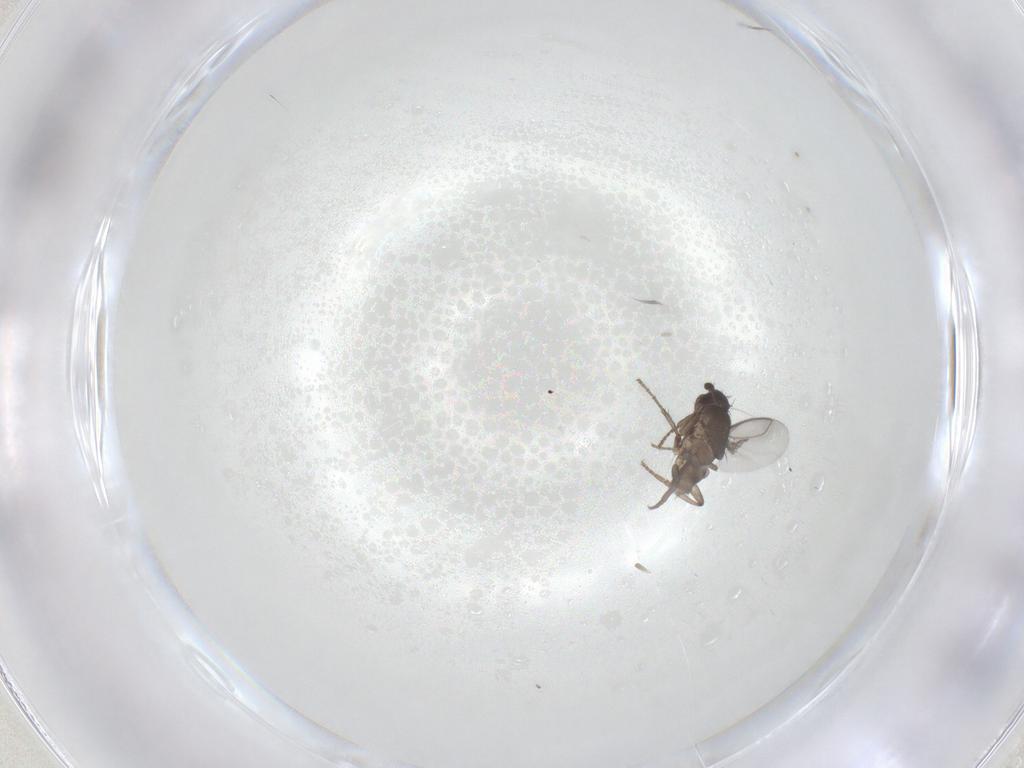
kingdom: Animalia
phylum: Arthropoda
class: Insecta
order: Diptera
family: Sphaeroceridae
